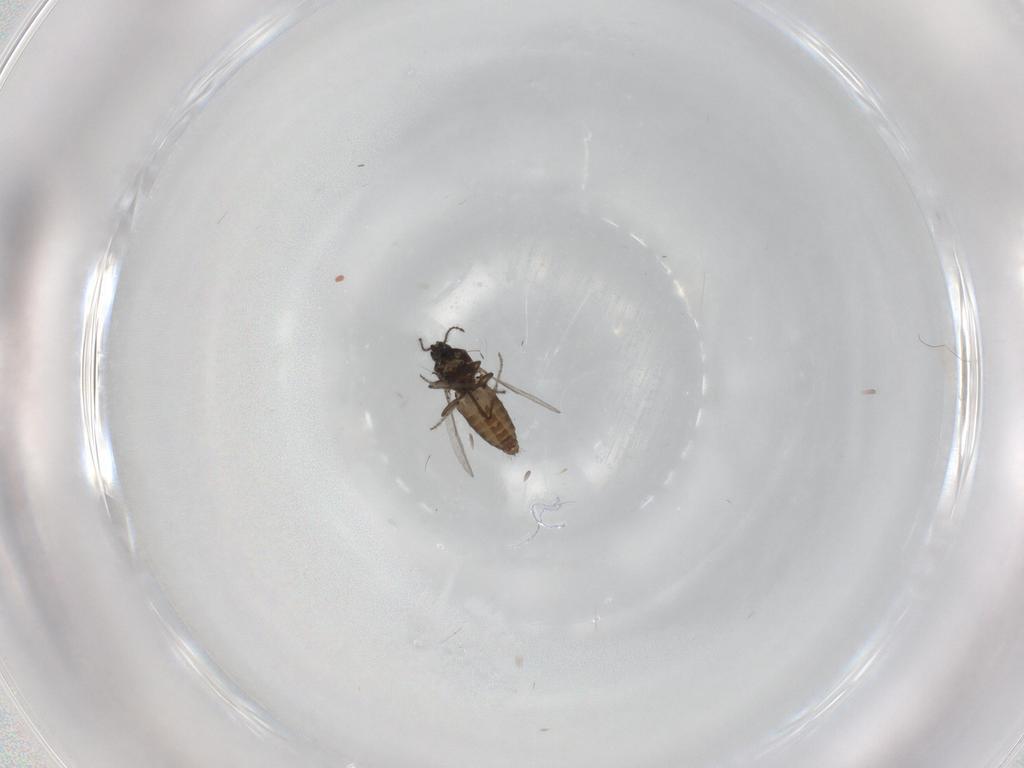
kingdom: Animalia
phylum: Arthropoda
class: Insecta
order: Diptera
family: Ceratopogonidae
